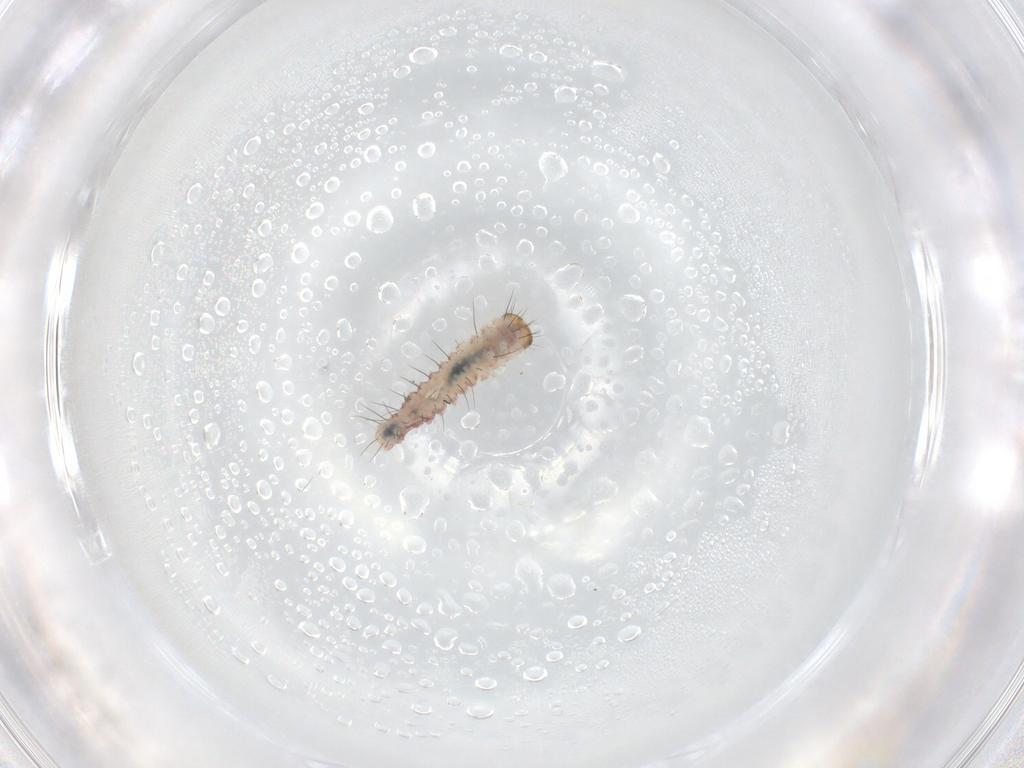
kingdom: Animalia
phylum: Arthropoda
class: Insecta
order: Lepidoptera
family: Erebidae
